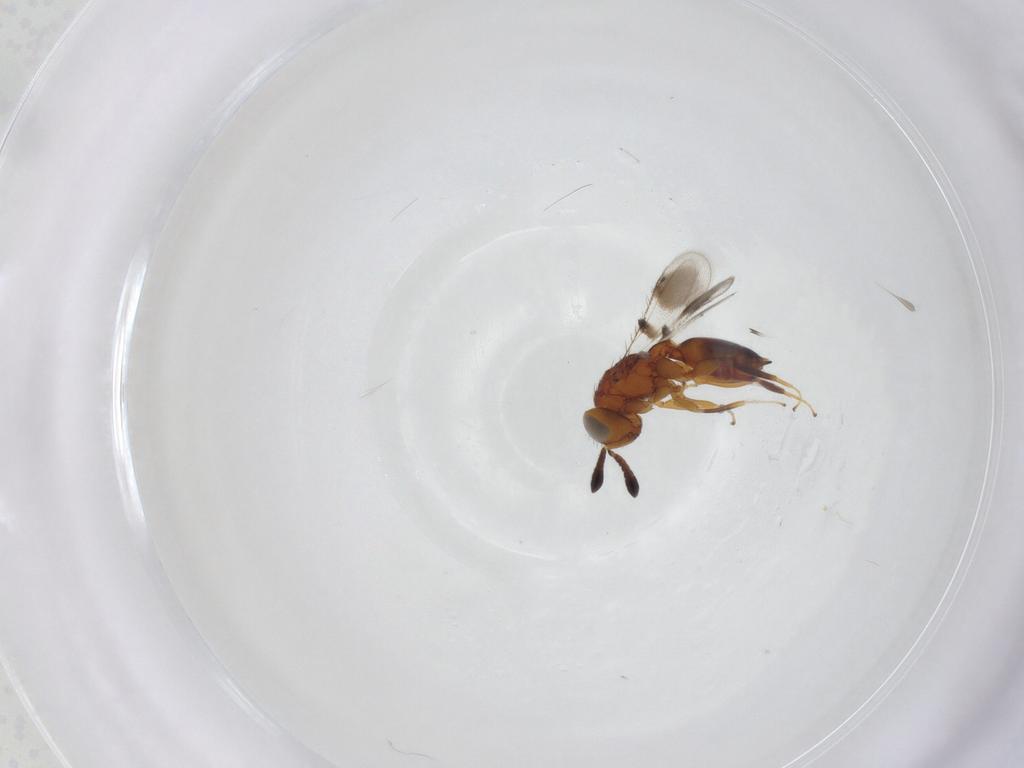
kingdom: Animalia
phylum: Arthropoda
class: Insecta
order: Hymenoptera
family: Moranilidae
